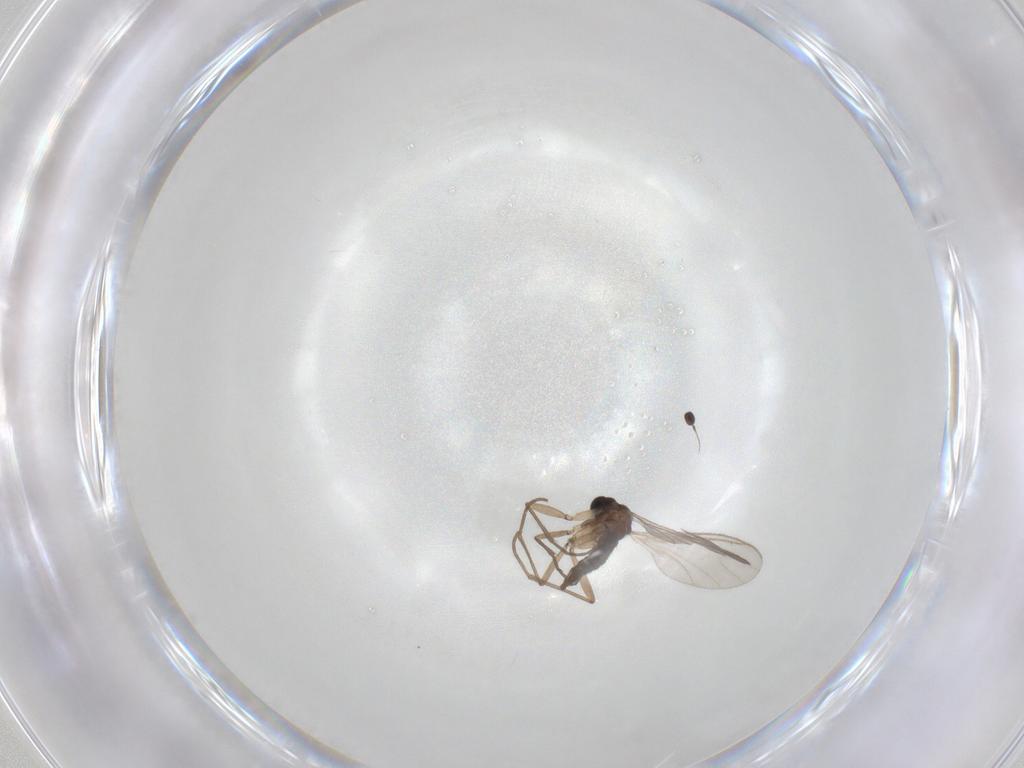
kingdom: Animalia
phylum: Arthropoda
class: Insecta
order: Diptera
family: Sciaridae
